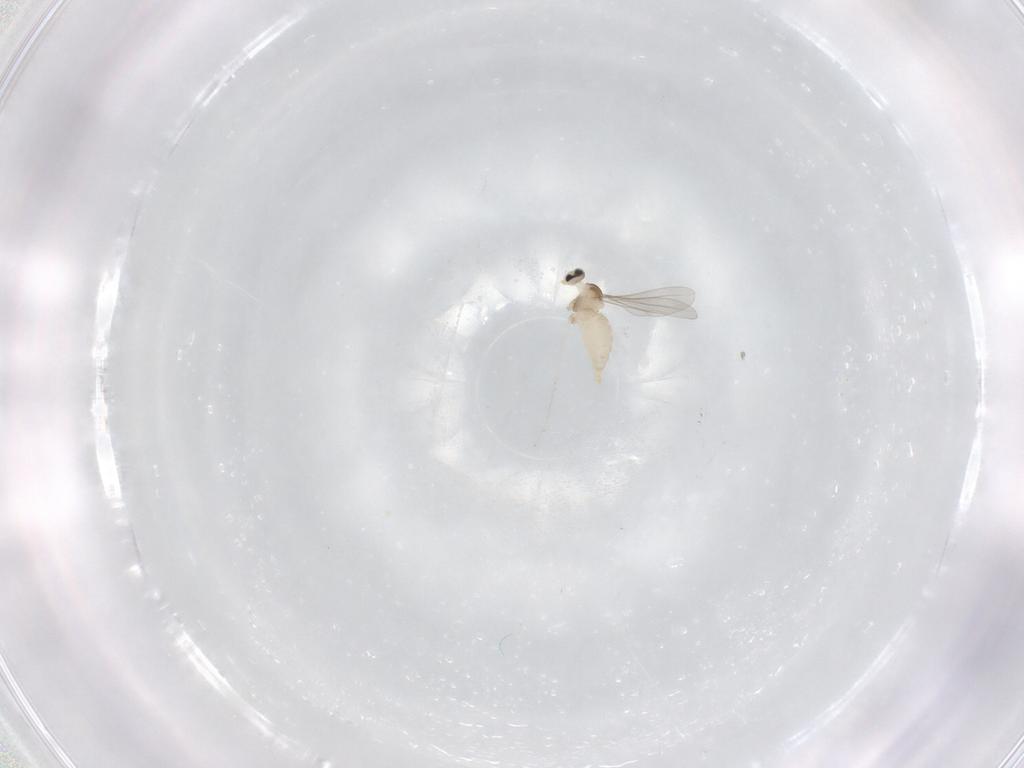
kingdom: Animalia
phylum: Arthropoda
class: Insecta
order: Diptera
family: Cecidomyiidae
